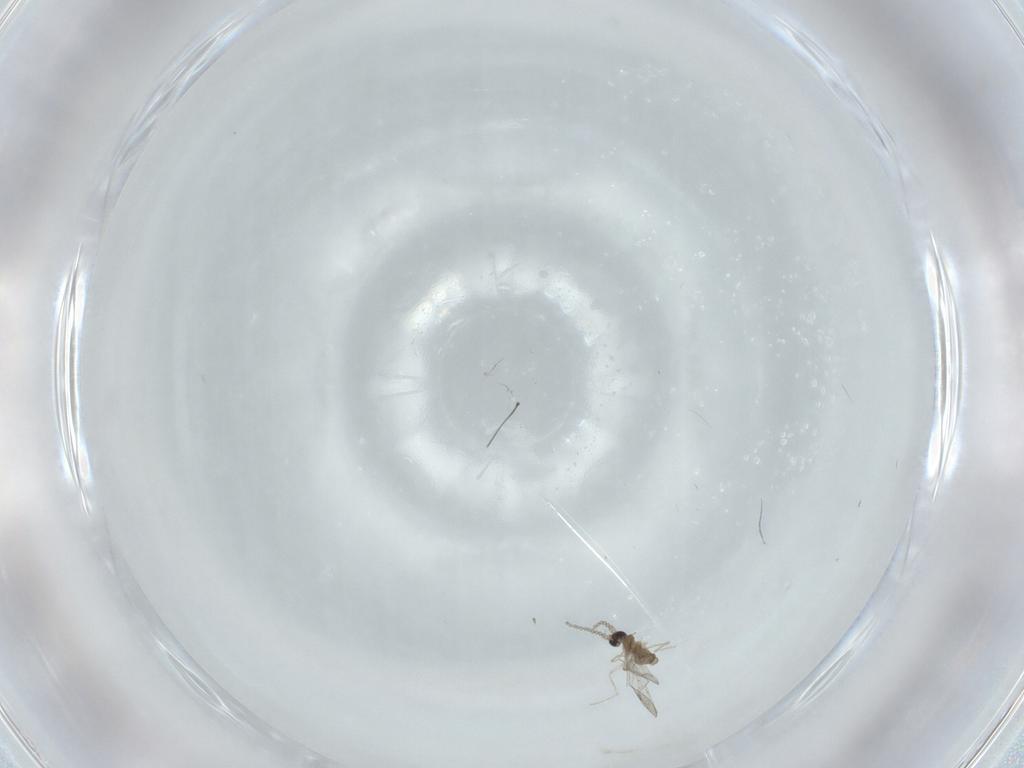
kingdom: Animalia
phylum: Arthropoda
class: Insecta
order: Diptera
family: Cecidomyiidae
